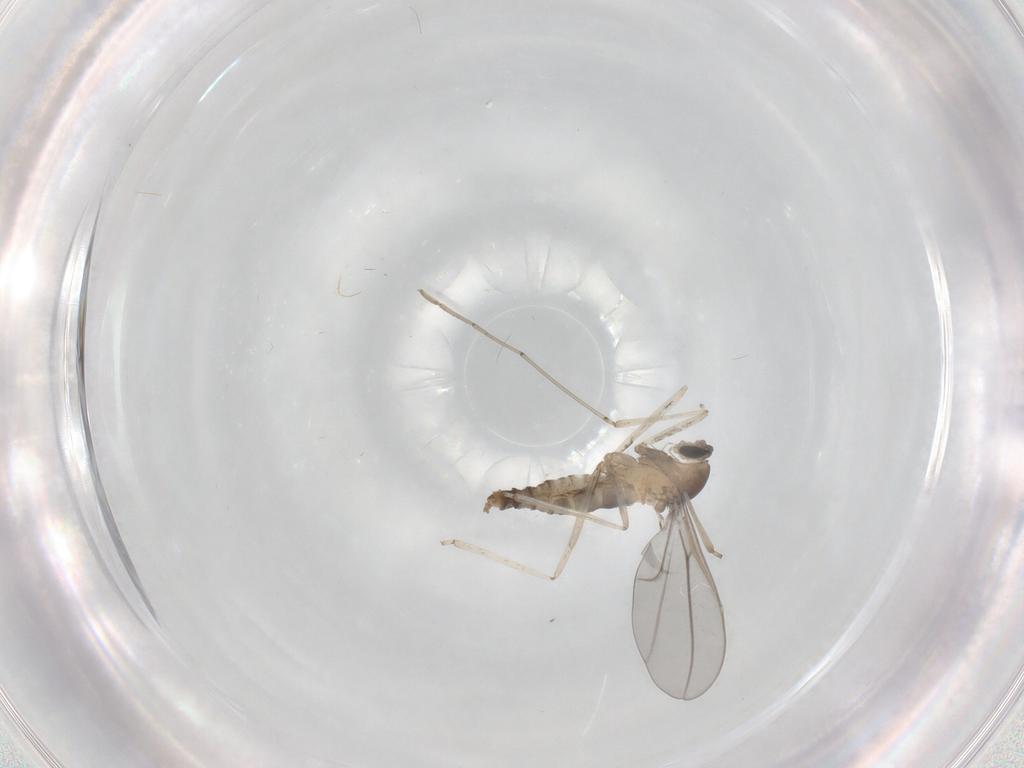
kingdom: Animalia
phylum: Arthropoda
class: Insecta
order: Diptera
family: Cecidomyiidae
